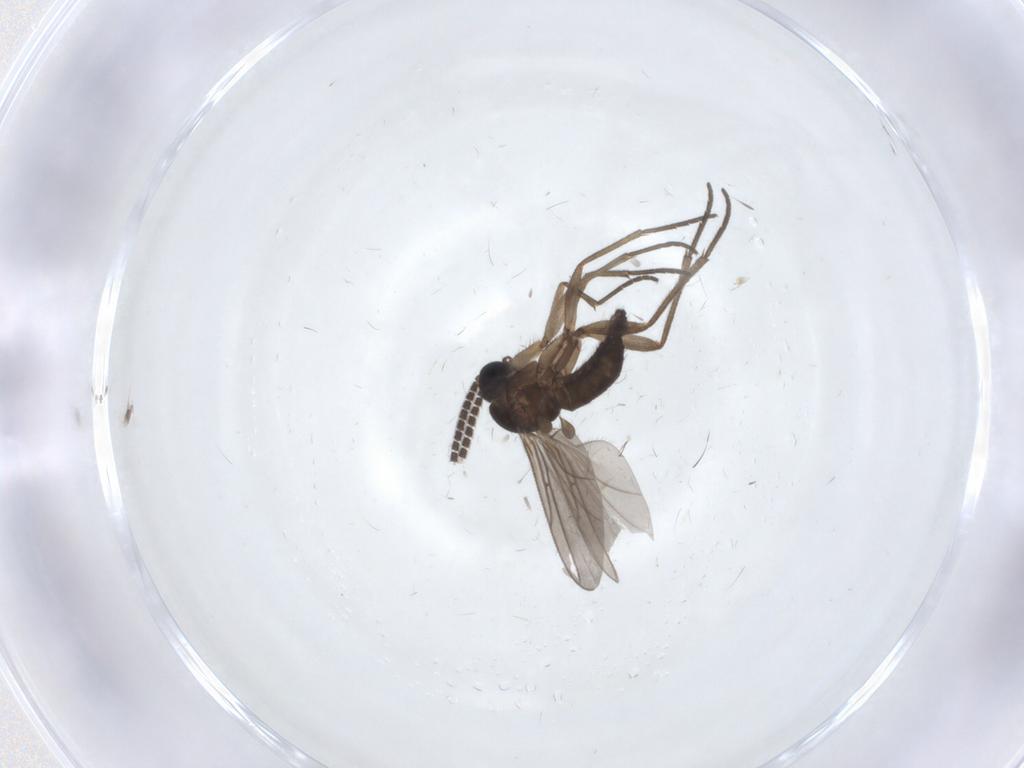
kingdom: Animalia
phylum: Arthropoda
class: Insecta
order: Diptera
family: Sciaridae
